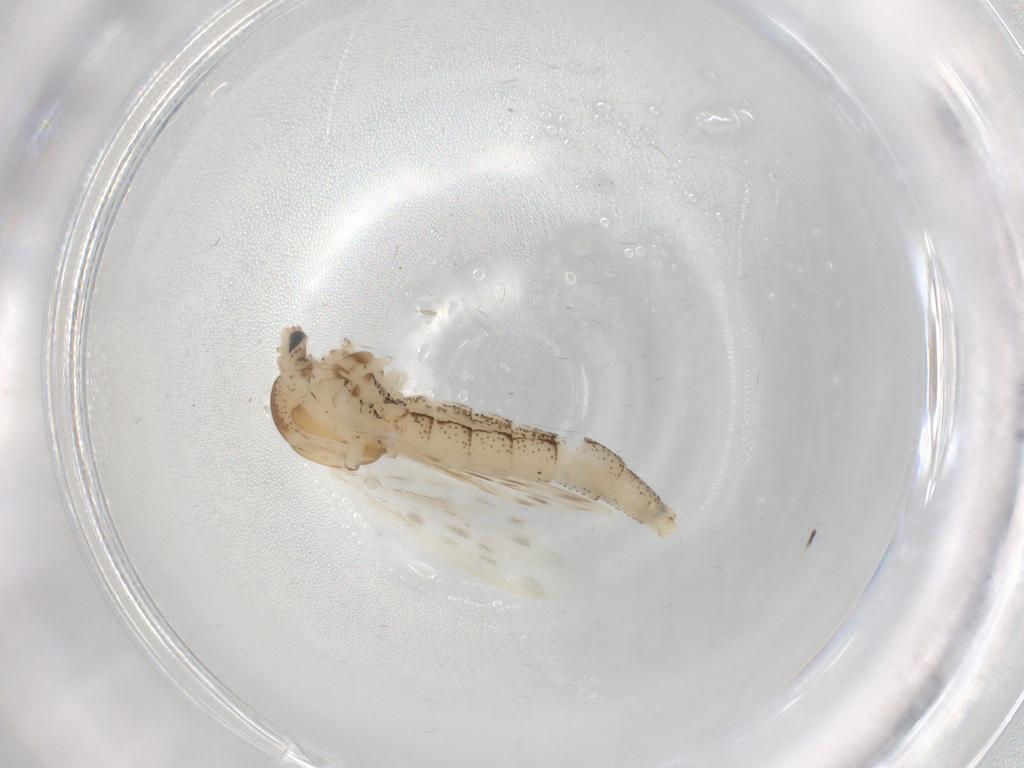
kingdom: Animalia
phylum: Arthropoda
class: Insecta
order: Diptera
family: Chaoboridae
